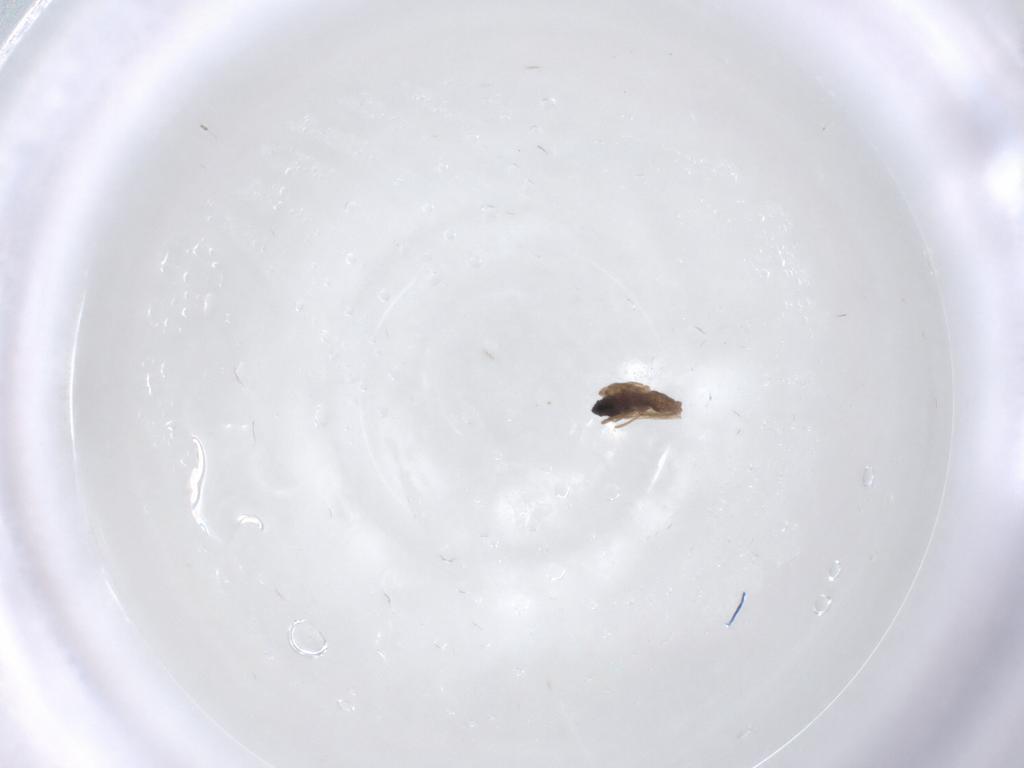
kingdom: Animalia
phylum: Arthropoda
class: Insecta
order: Diptera
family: Cecidomyiidae
